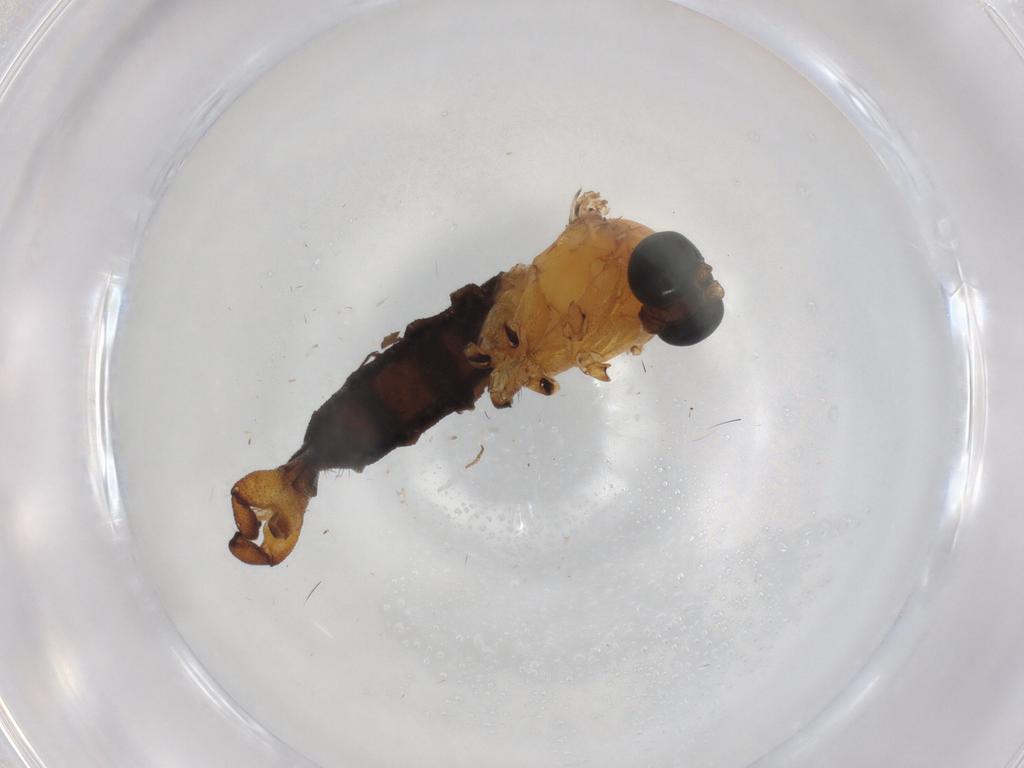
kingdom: Animalia
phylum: Arthropoda
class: Insecta
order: Diptera
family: Sciaridae
